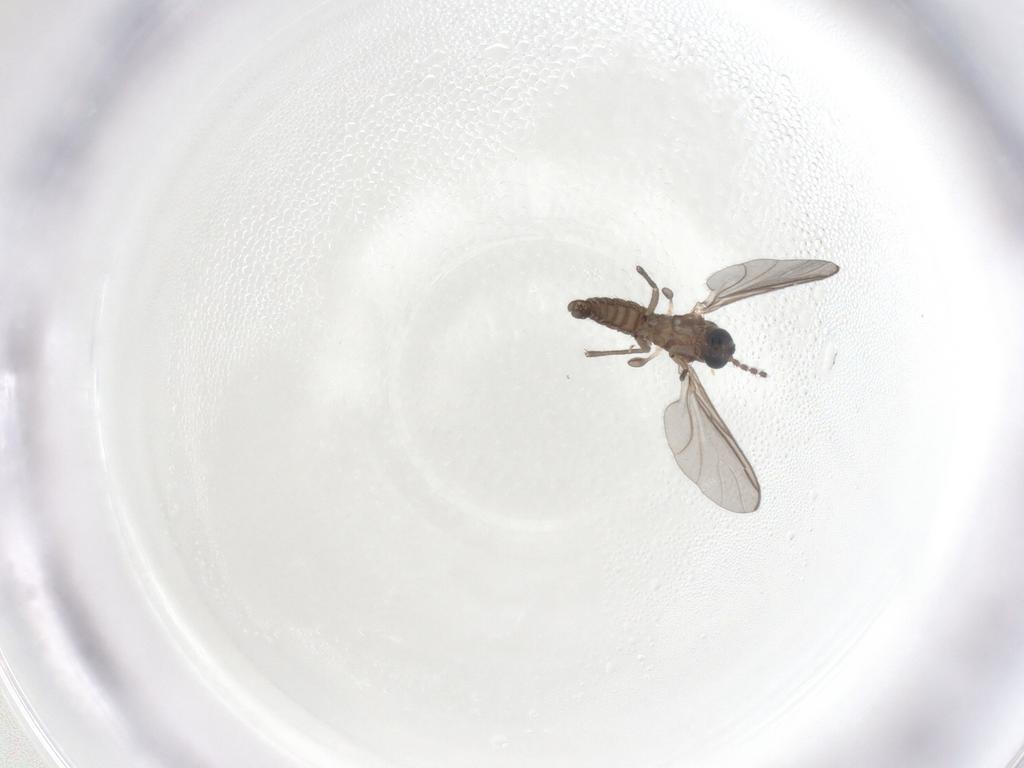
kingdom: Animalia
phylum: Arthropoda
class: Insecta
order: Diptera
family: Sciaridae
